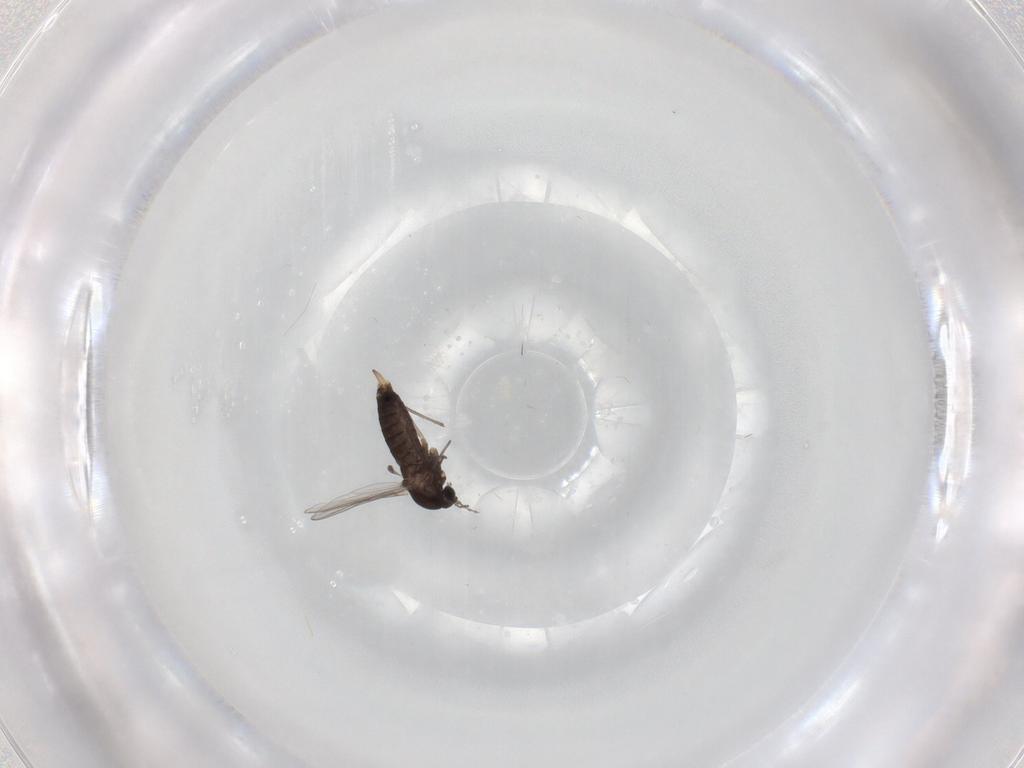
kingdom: Animalia
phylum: Arthropoda
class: Insecta
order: Diptera
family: Chironomidae
